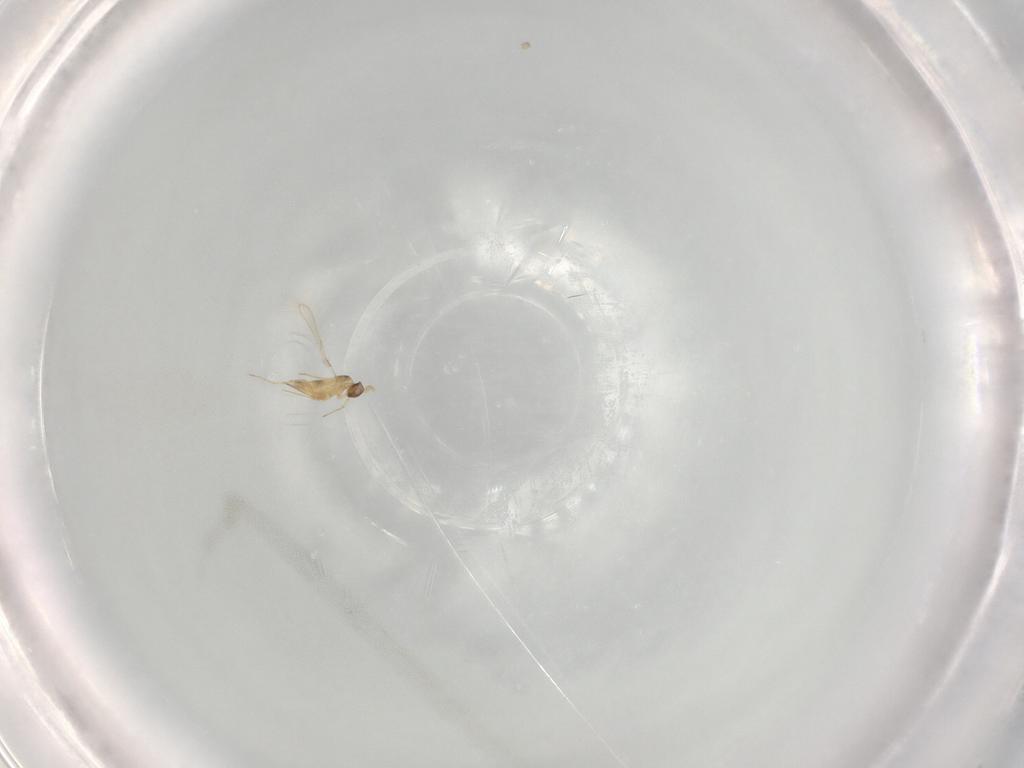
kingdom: Animalia
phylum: Arthropoda
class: Insecta
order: Hymenoptera
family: Mymaridae
